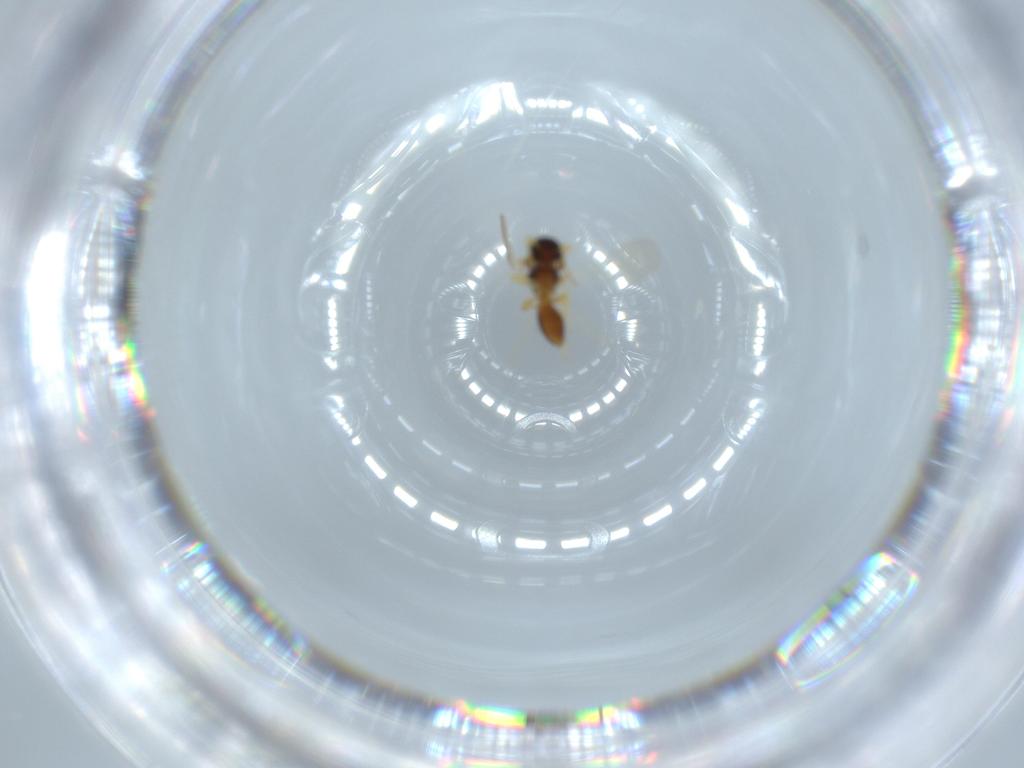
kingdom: Animalia
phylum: Arthropoda
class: Insecta
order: Hymenoptera
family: Platygastridae
